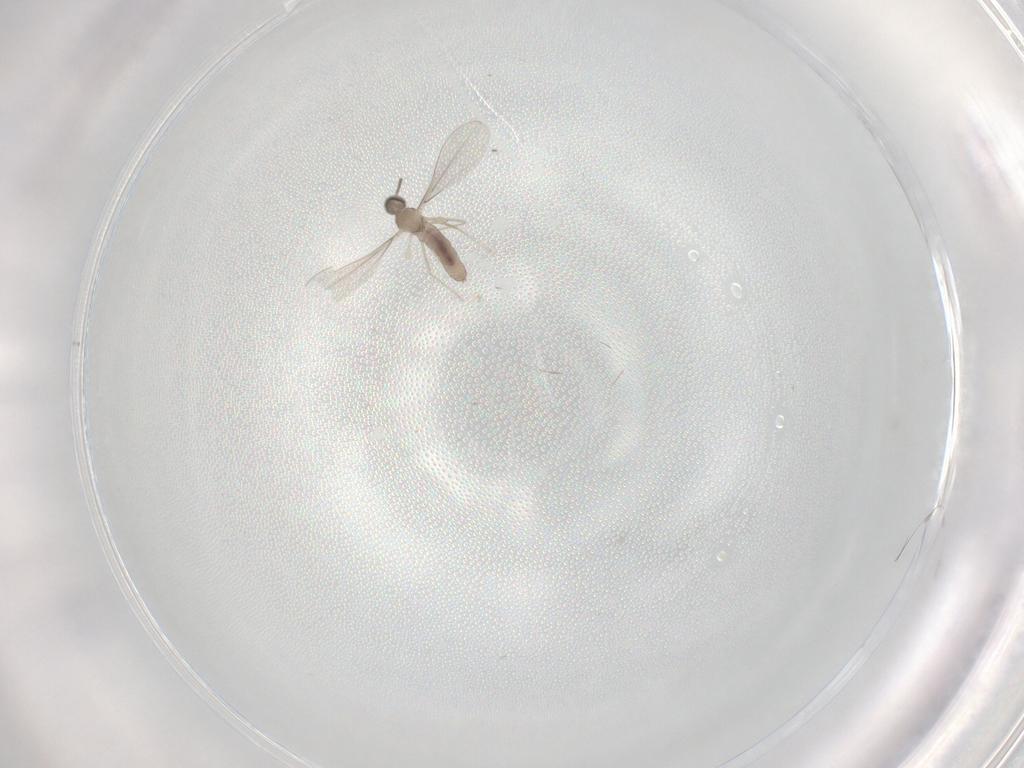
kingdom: Animalia
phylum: Arthropoda
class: Insecta
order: Diptera
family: Cecidomyiidae
